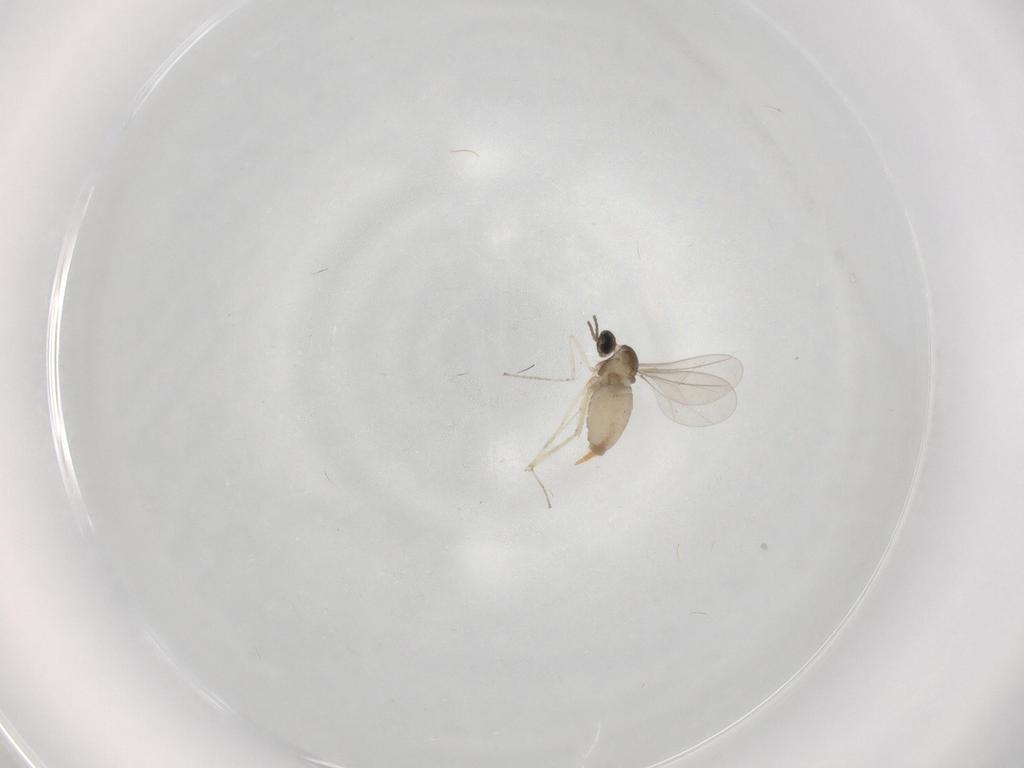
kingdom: Animalia
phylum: Arthropoda
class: Insecta
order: Diptera
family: Cecidomyiidae
